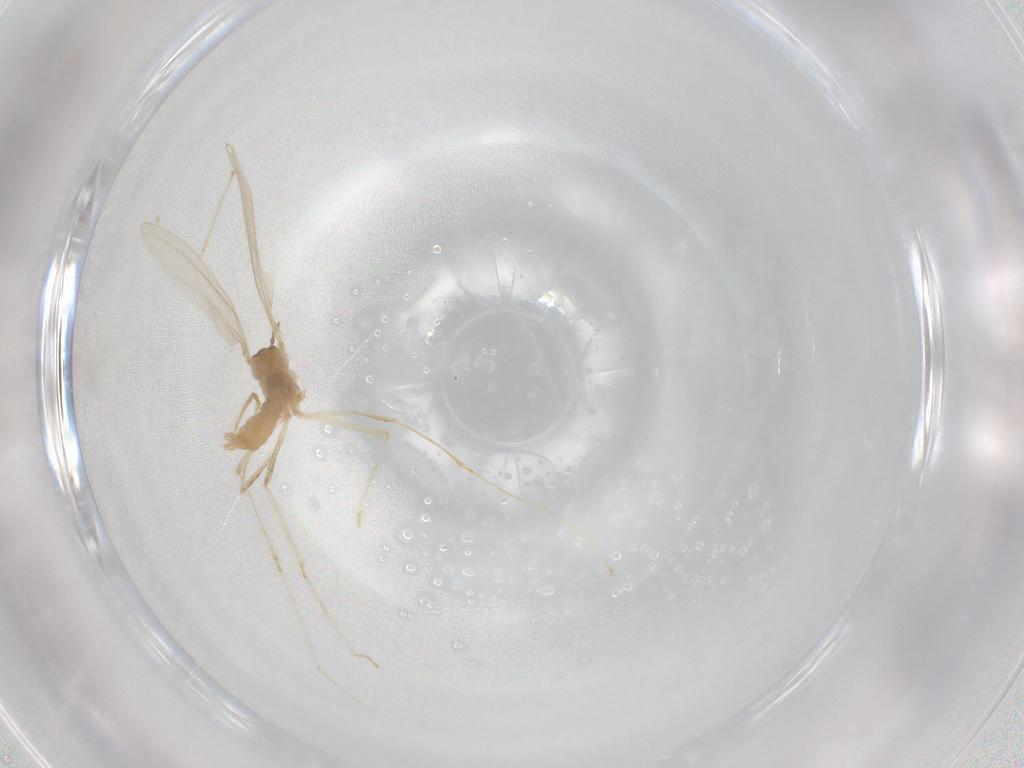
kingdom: Animalia
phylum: Arthropoda
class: Insecta
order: Diptera
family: Cecidomyiidae
